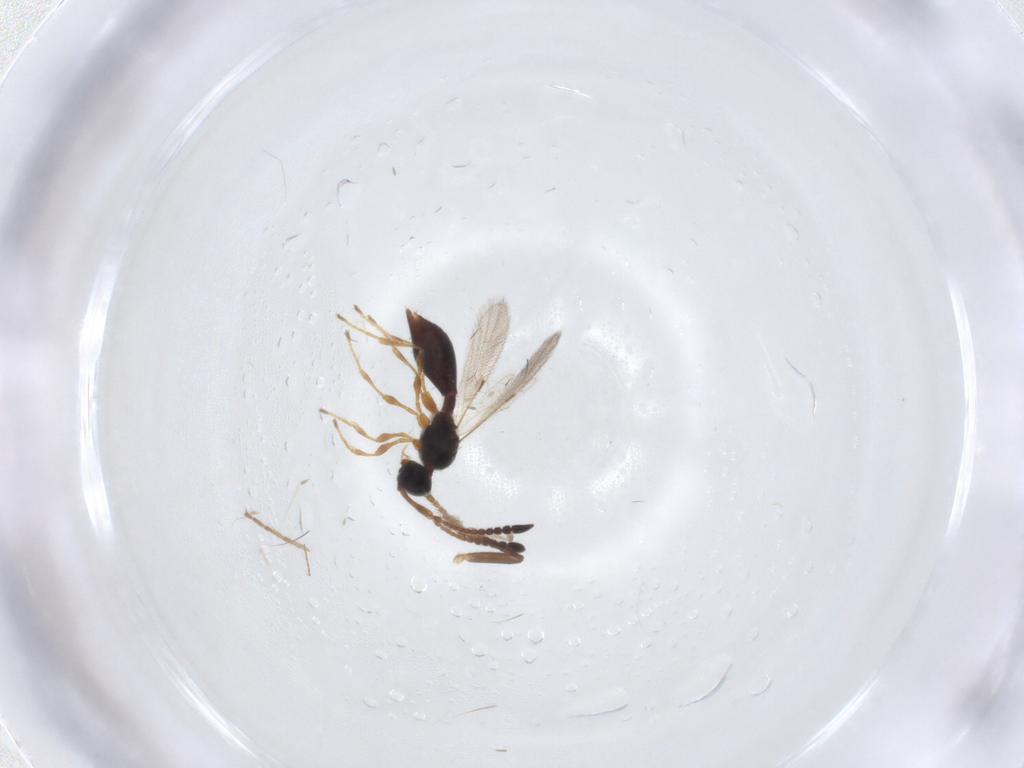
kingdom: Animalia
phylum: Arthropoda
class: Insecta
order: Hymenoptera
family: Diapriidae
